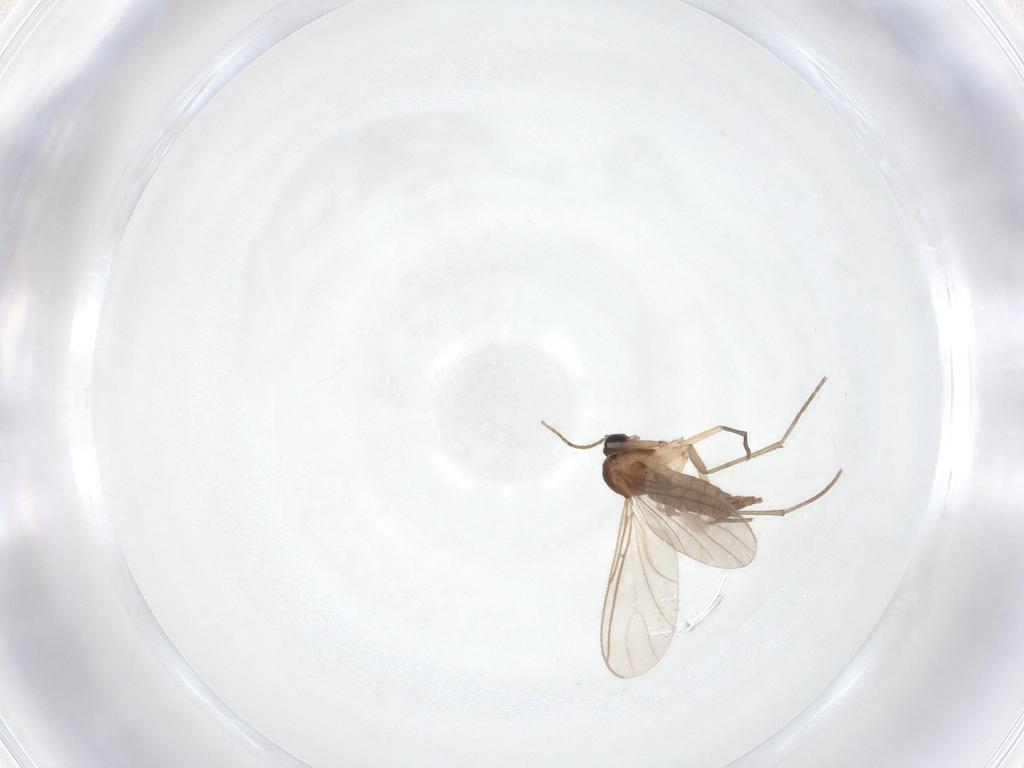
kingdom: Animalia
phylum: Arthropoda
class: Insecta
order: Diptera
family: Sciaridae
